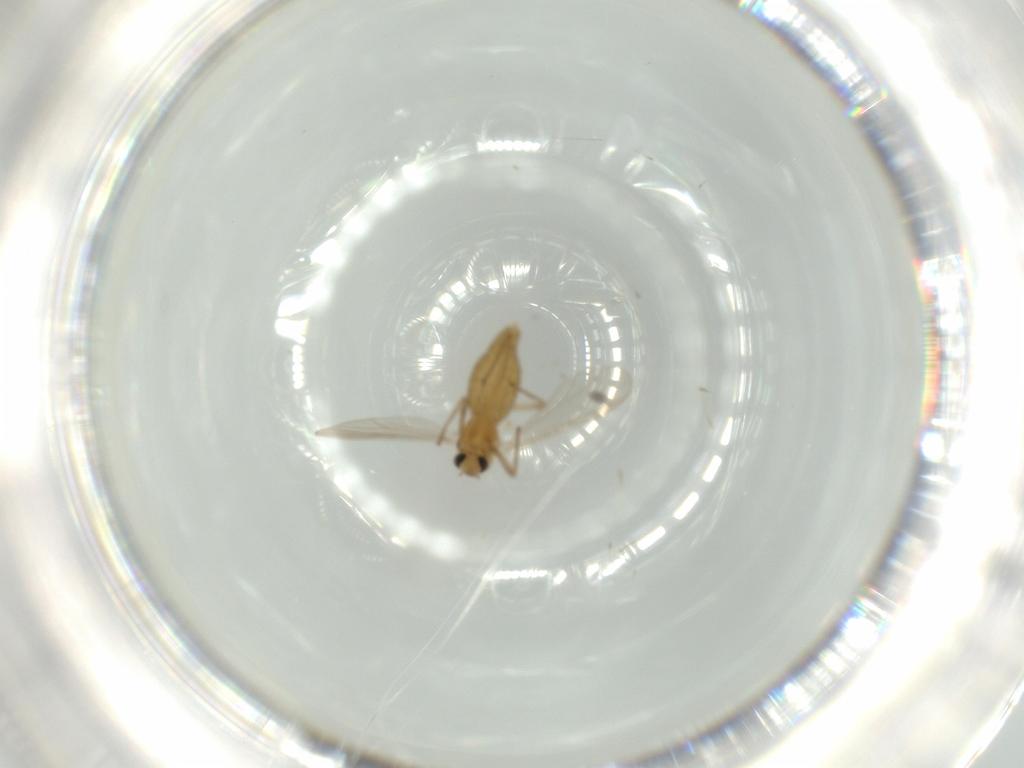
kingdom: Animalia
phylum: Arthropoda
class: Insecta
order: Diptera
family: Chironomidae
